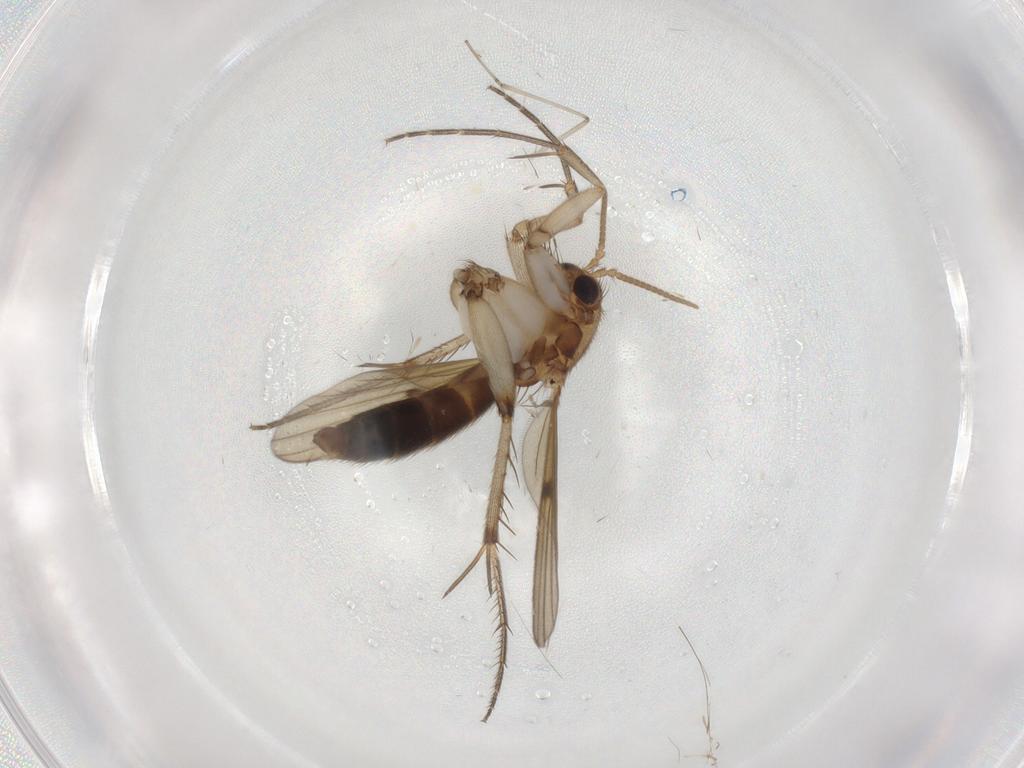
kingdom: Animalia
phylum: Arthropoda
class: Insecta
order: Diptera
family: Mycetophilidae
